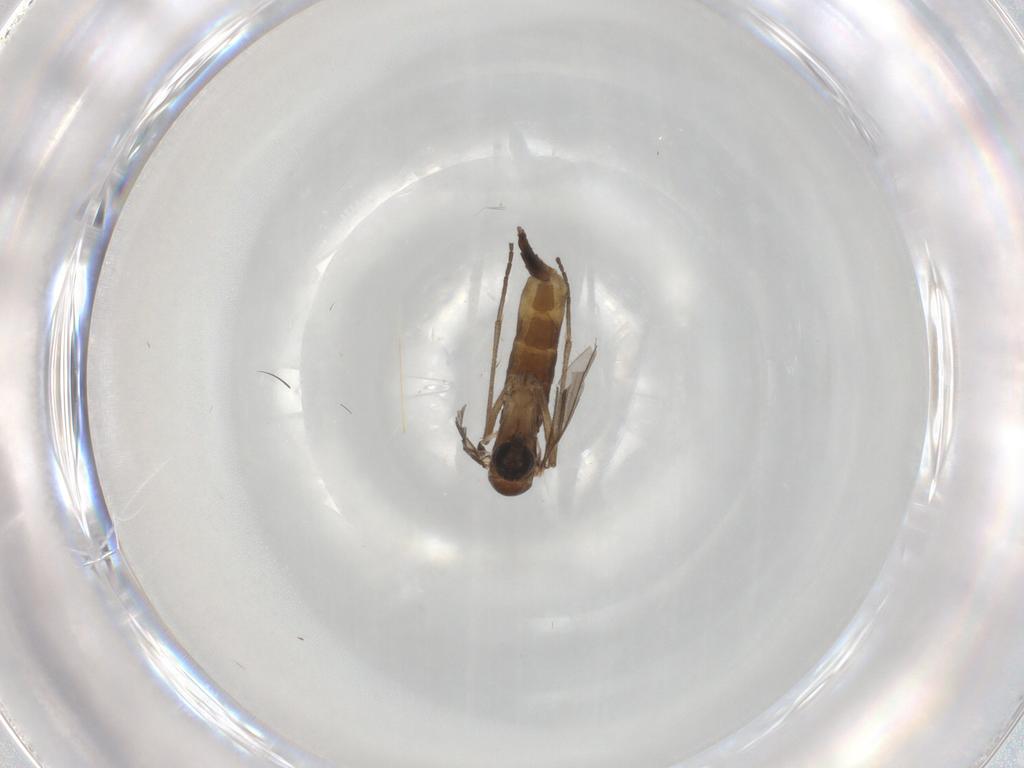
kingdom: Animalia
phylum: Arthropoda
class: Insecta
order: Diptera
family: Sciaridae
